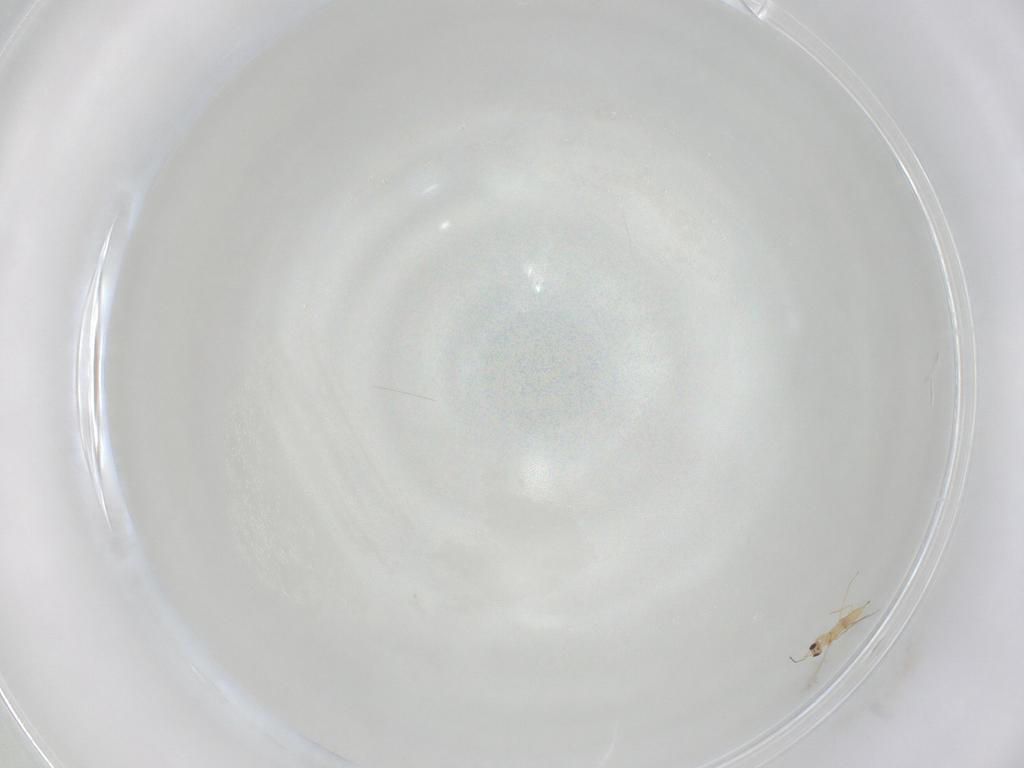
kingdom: Animalia
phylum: Arthropoda
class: Insecta
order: Hymenoptera
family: Mymaridae
